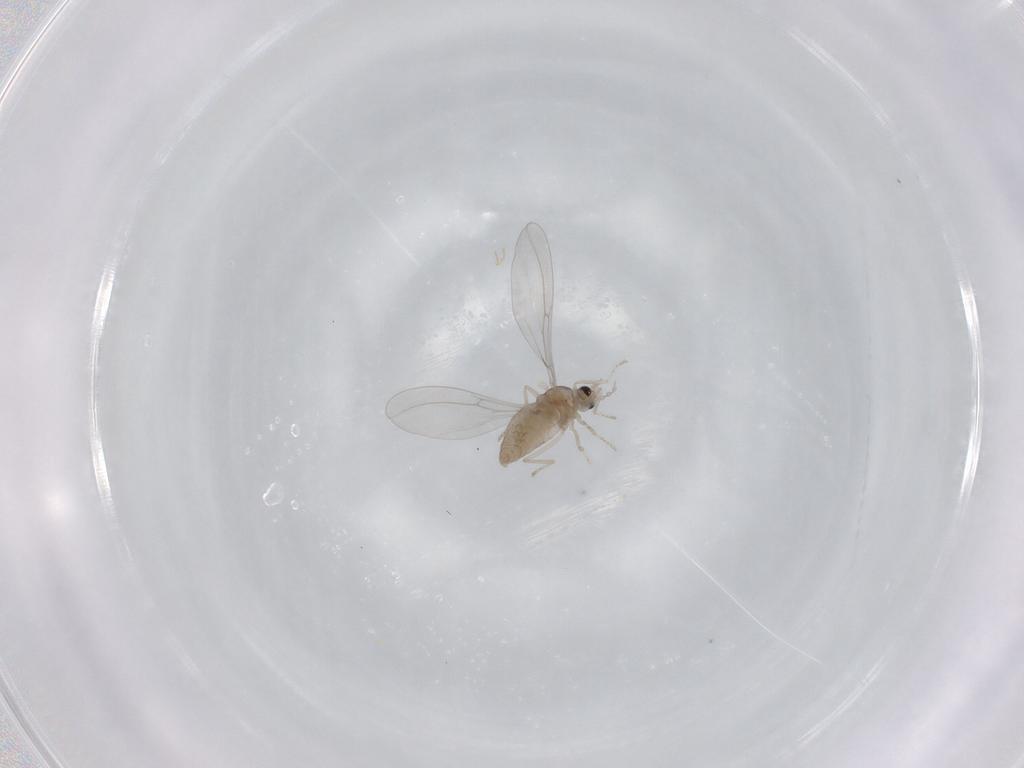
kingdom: Animalia
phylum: Arthropoda
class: Insecta
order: Diptera
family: Cecidomyiidae
